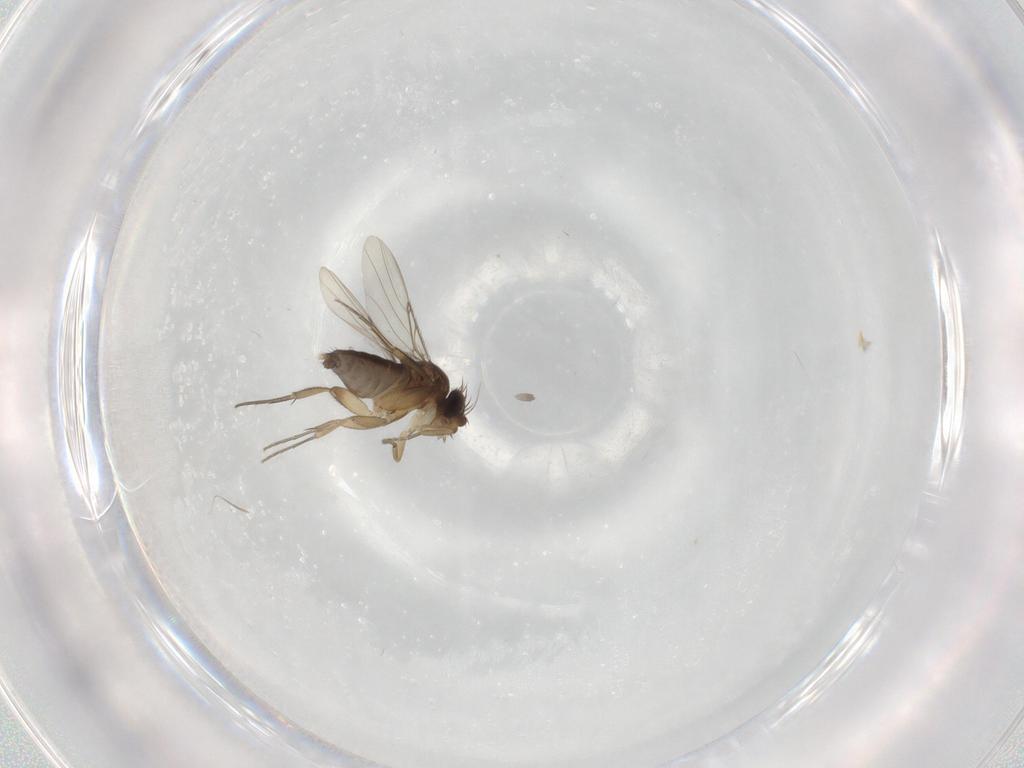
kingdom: Animalia
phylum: Arthropoda
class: Insecta
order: Diptera
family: Phoridae
